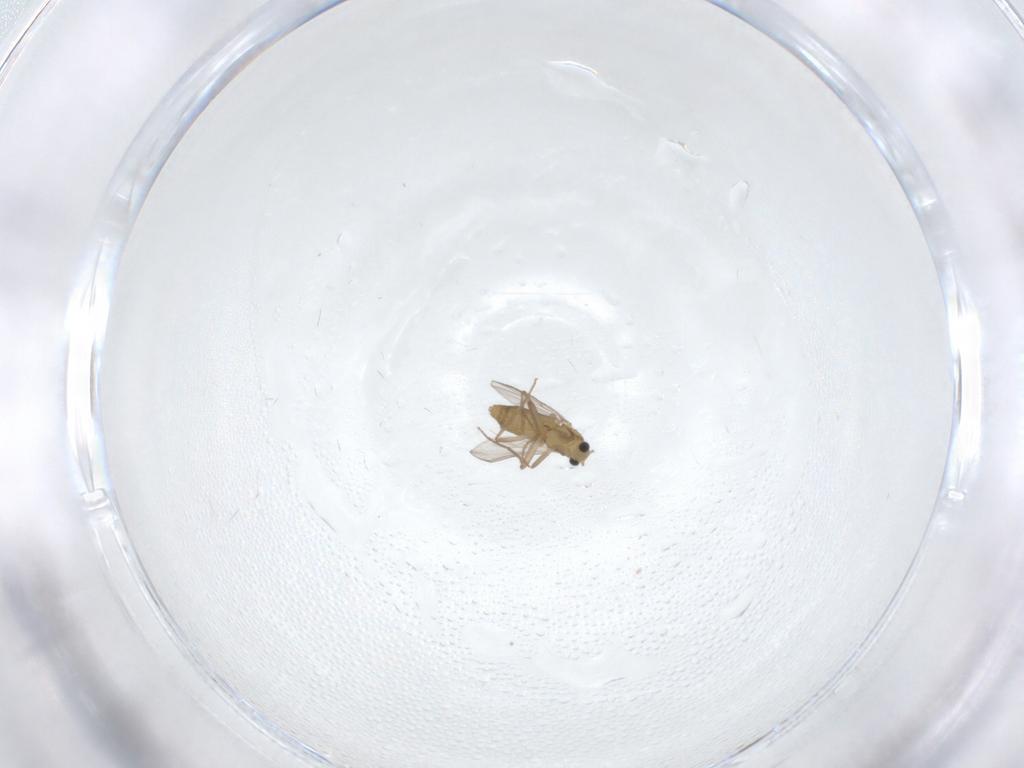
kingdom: Animalia
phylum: Arthropoda
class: Insecta
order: Diptera
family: Chironomidae
